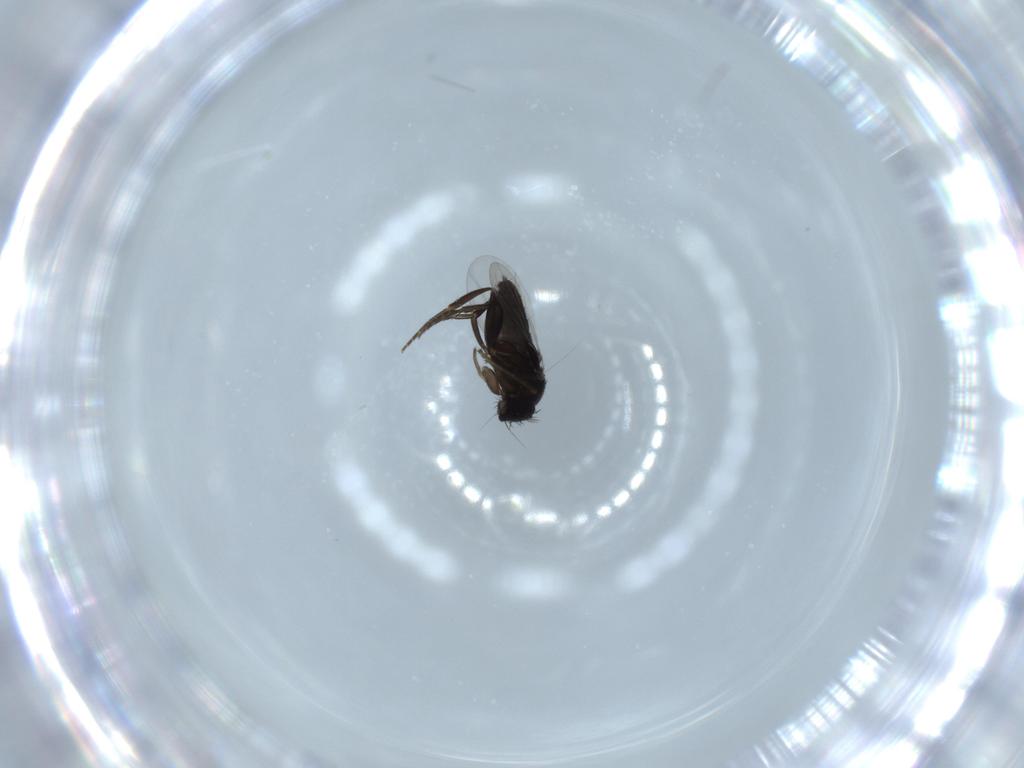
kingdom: Animalia
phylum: Arthropoda
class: Insecta
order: Diptera
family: Phoridae
